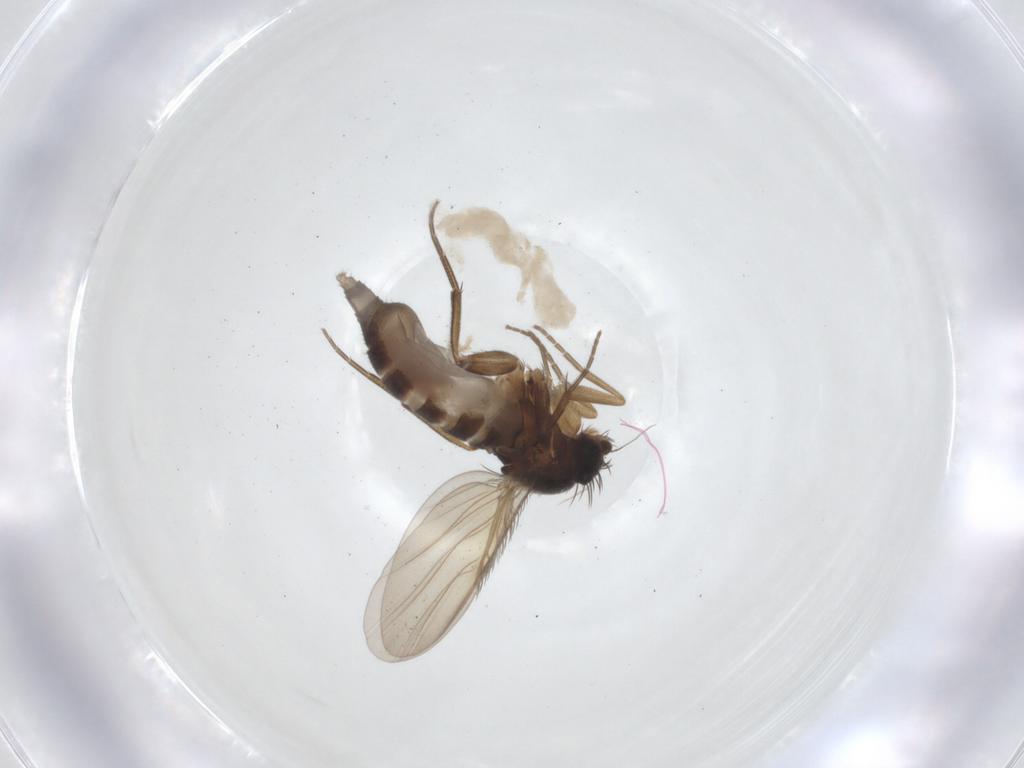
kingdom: Animalia
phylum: Arthropoda
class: Insecta
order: Diptera
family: Phoridae
